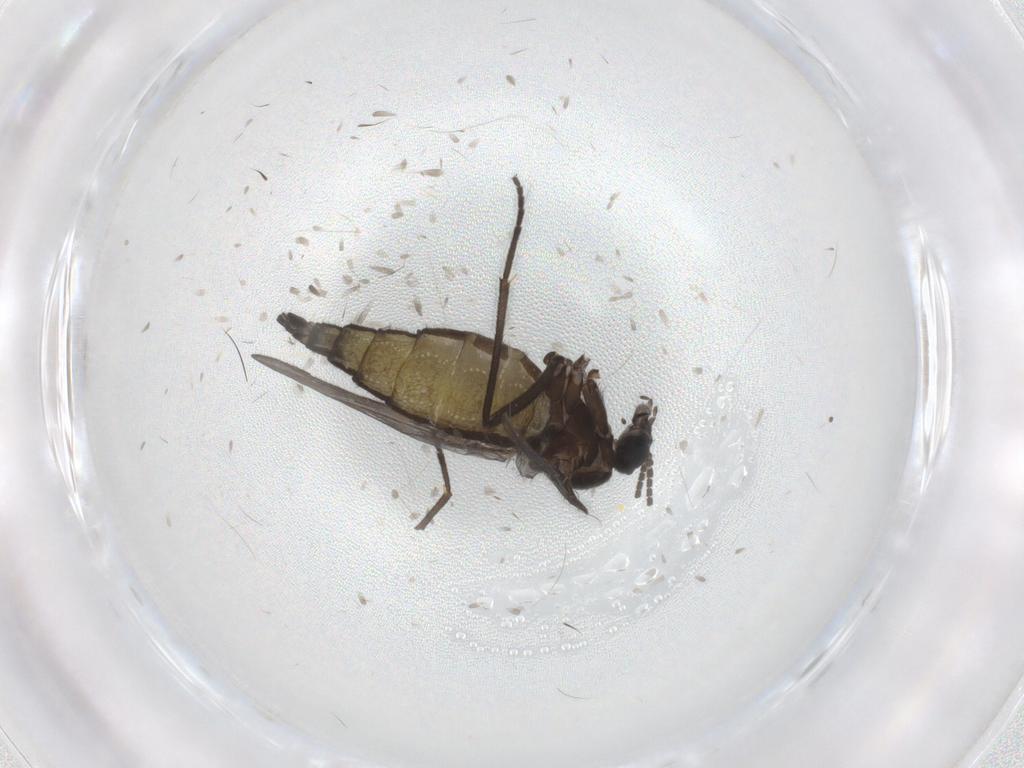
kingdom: Animalia
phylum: Arthropoda
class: Insecta
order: Diptera
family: Sciaridae
